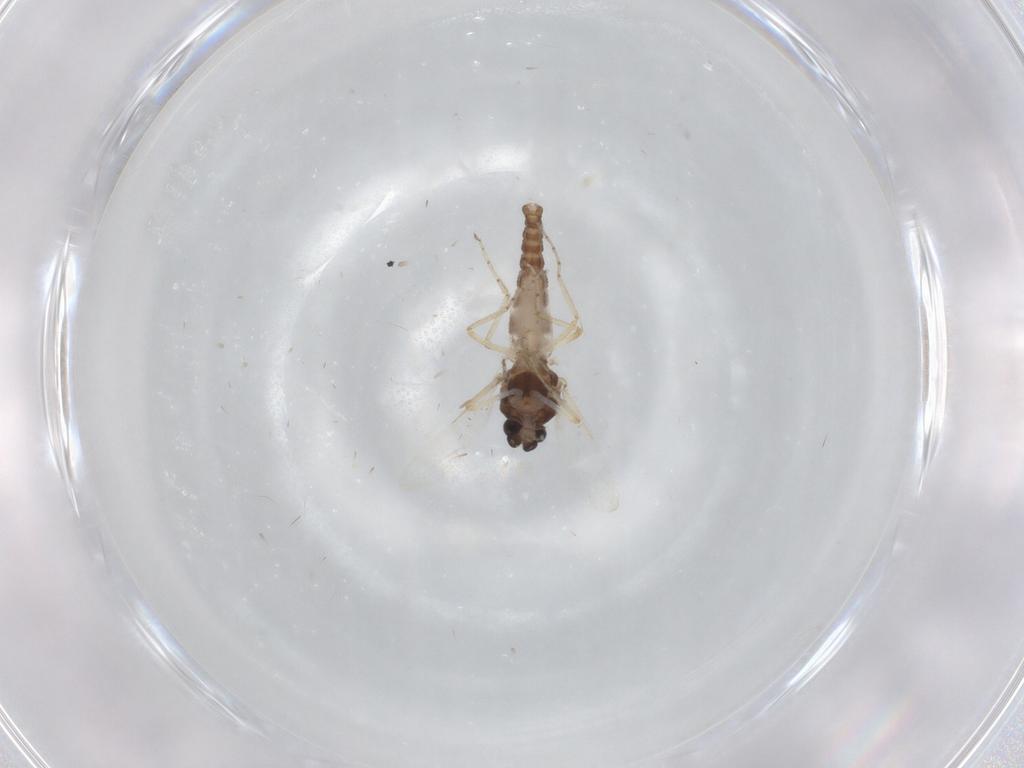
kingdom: Animalia
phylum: Arthropoda
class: Insecta
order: Diptera
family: Ceratopogonidae
